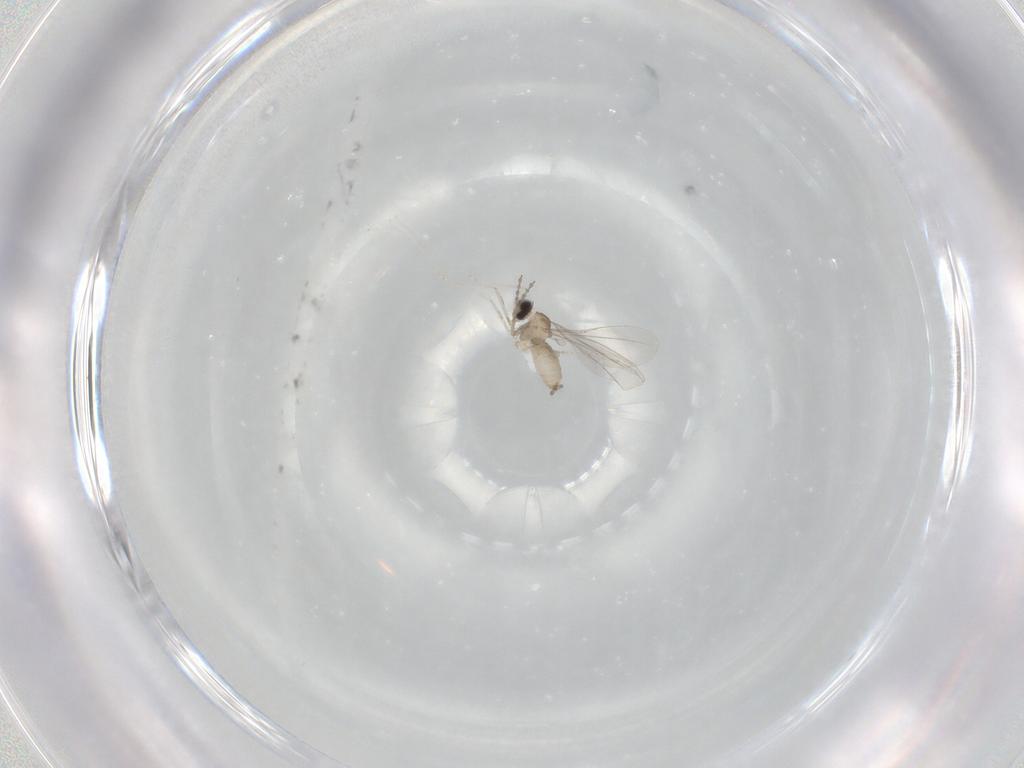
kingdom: Animalia
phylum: Arthropoda
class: Insecta
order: Diptera
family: Cecidomyiidae
